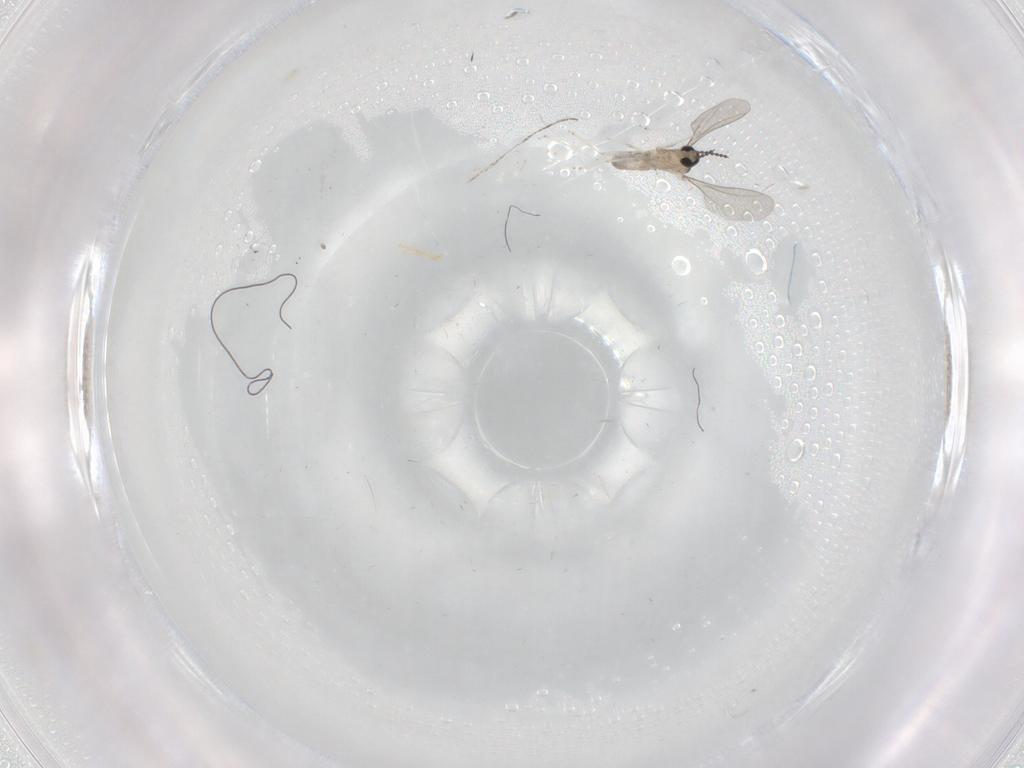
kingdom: Animalia
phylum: Arthropoda
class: Insecta
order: Diptera
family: Cecidomyiidae
